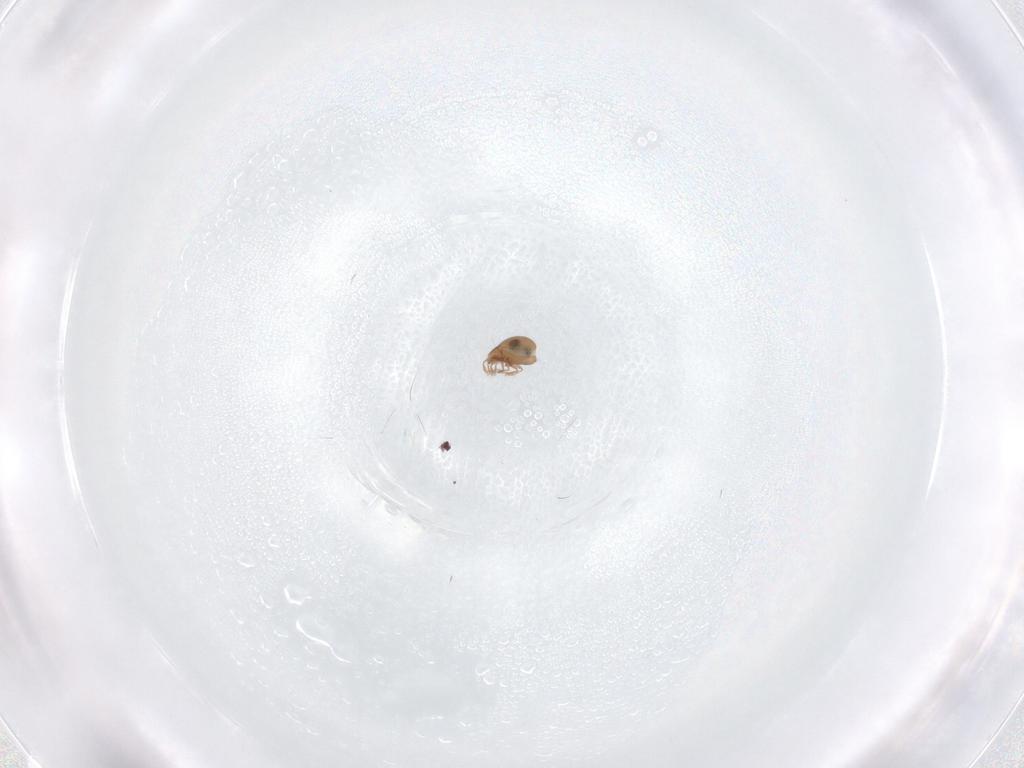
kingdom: Animalia
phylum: Arthropoda
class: Arachnida
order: Sarcoptiformes
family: Scheloribatidae
